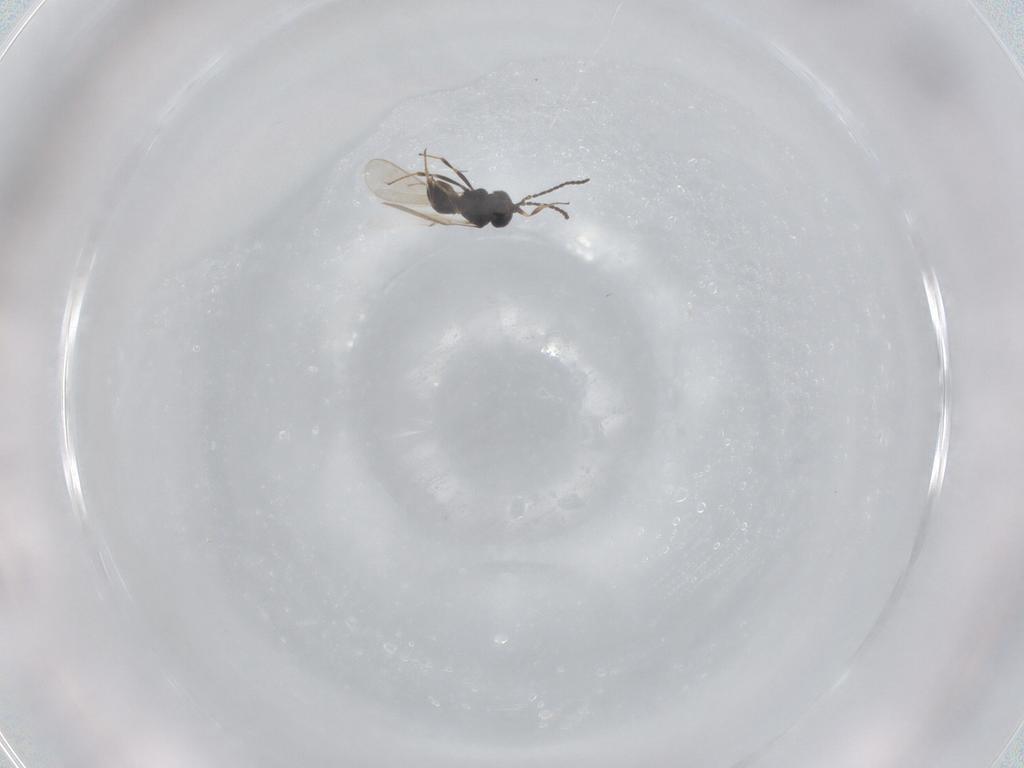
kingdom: Animalia
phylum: Arthropoda
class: Insecta
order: Hymenoptera
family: Scelionidae
